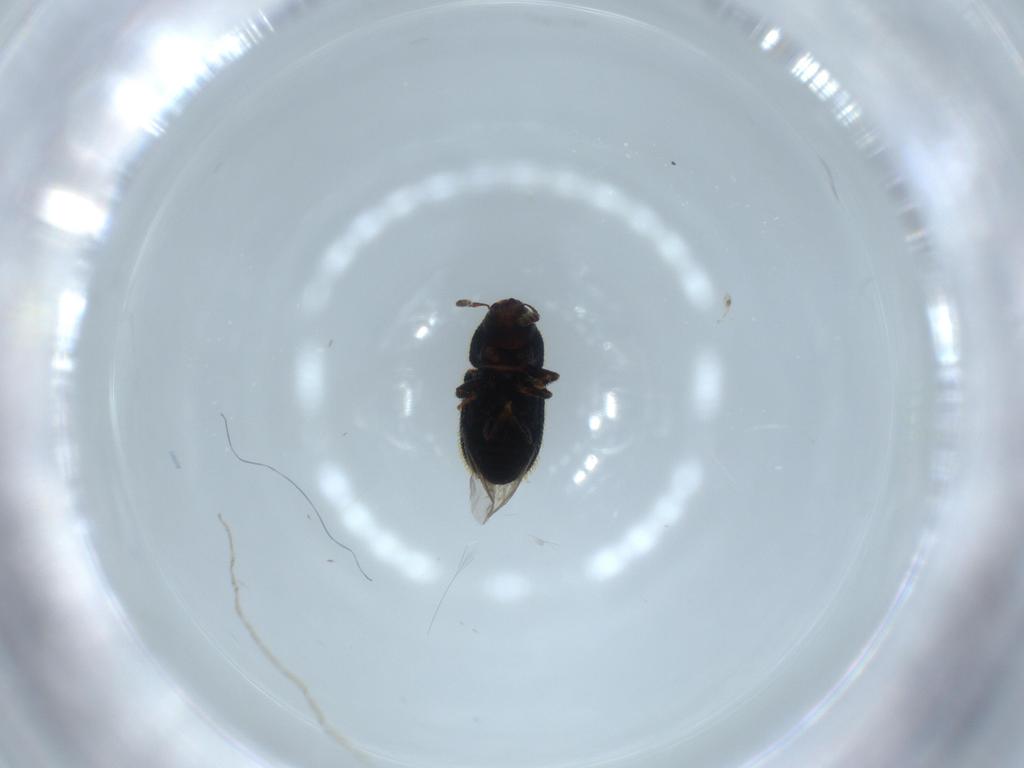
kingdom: Animalia
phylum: Arthropoda
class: Insecta
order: Coleoptera
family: Curculionidae
